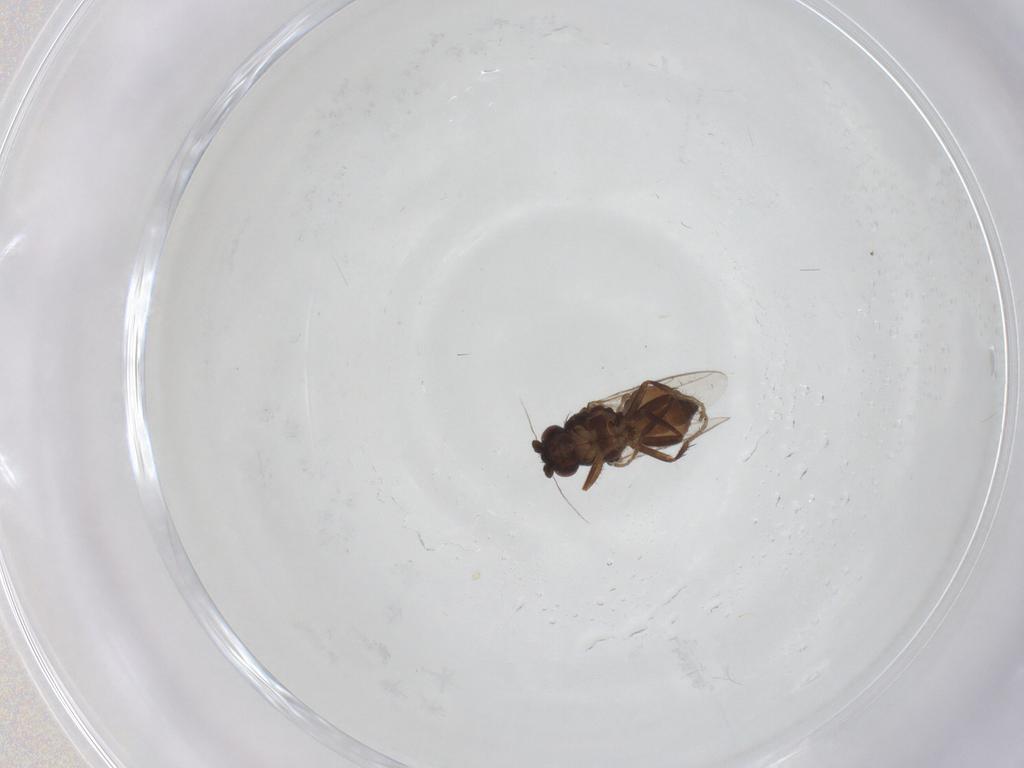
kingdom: Animalia
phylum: Arthropoda
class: Insecta
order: Diptera
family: Sphaeroceridae
